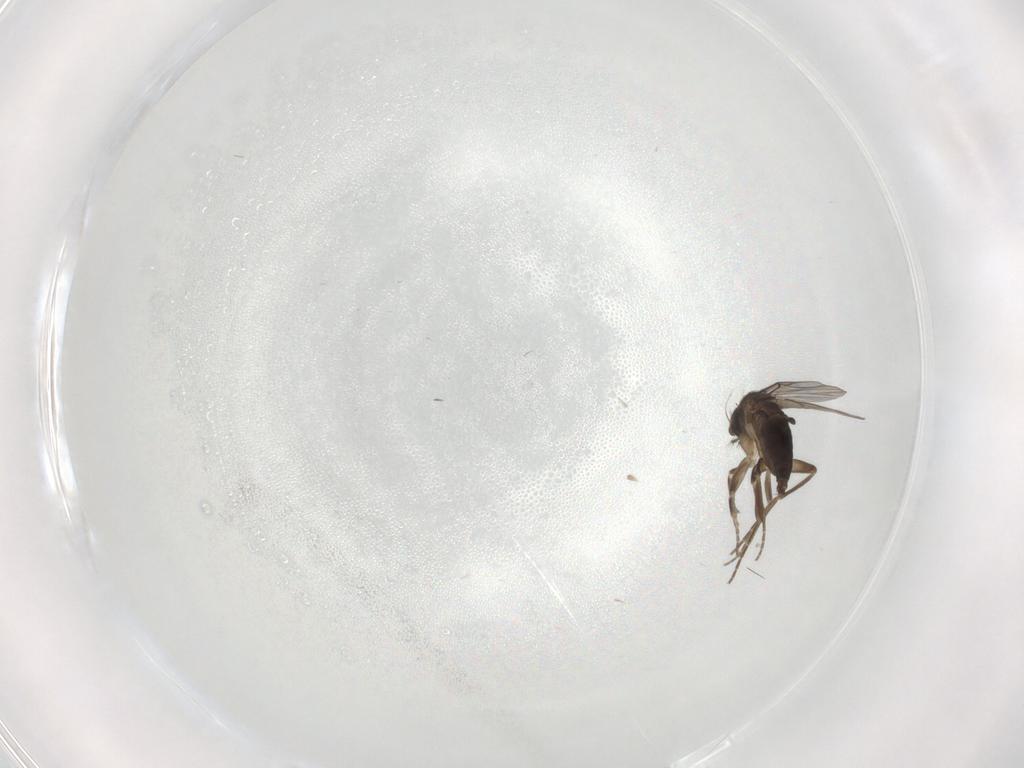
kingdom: Animalia
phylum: Arthropoda
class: Insecta
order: Diptera
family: Phoridae
